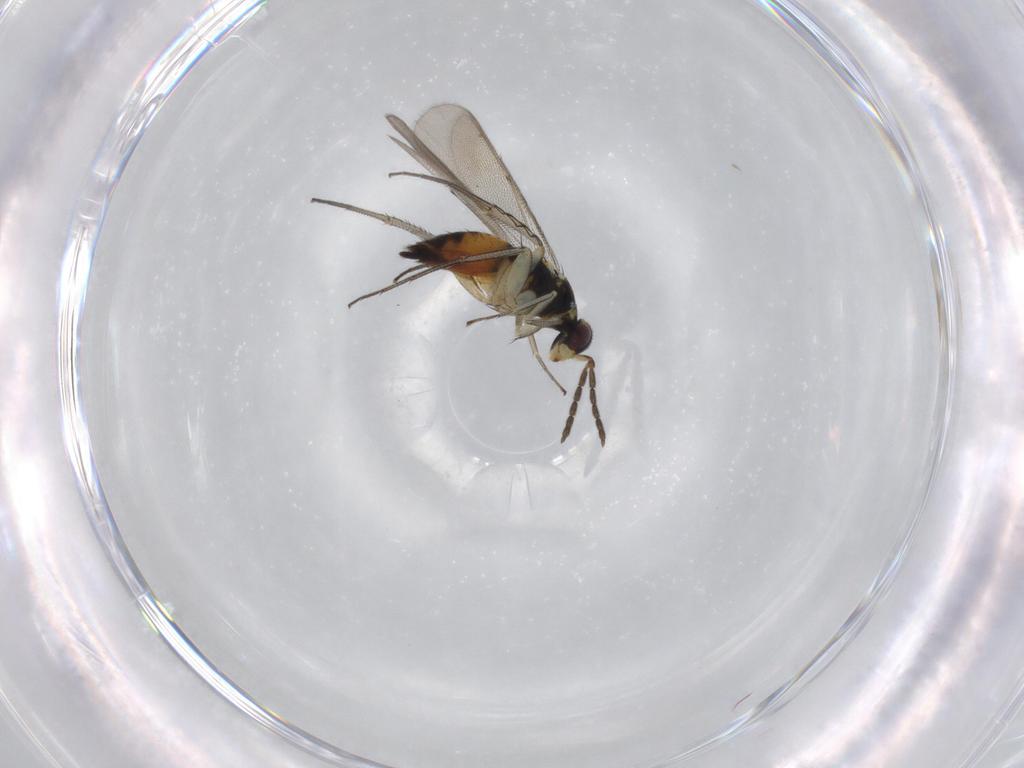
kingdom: Animalia
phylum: Arthropoda
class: Insecta
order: Hymenoptera
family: Eulophidae
